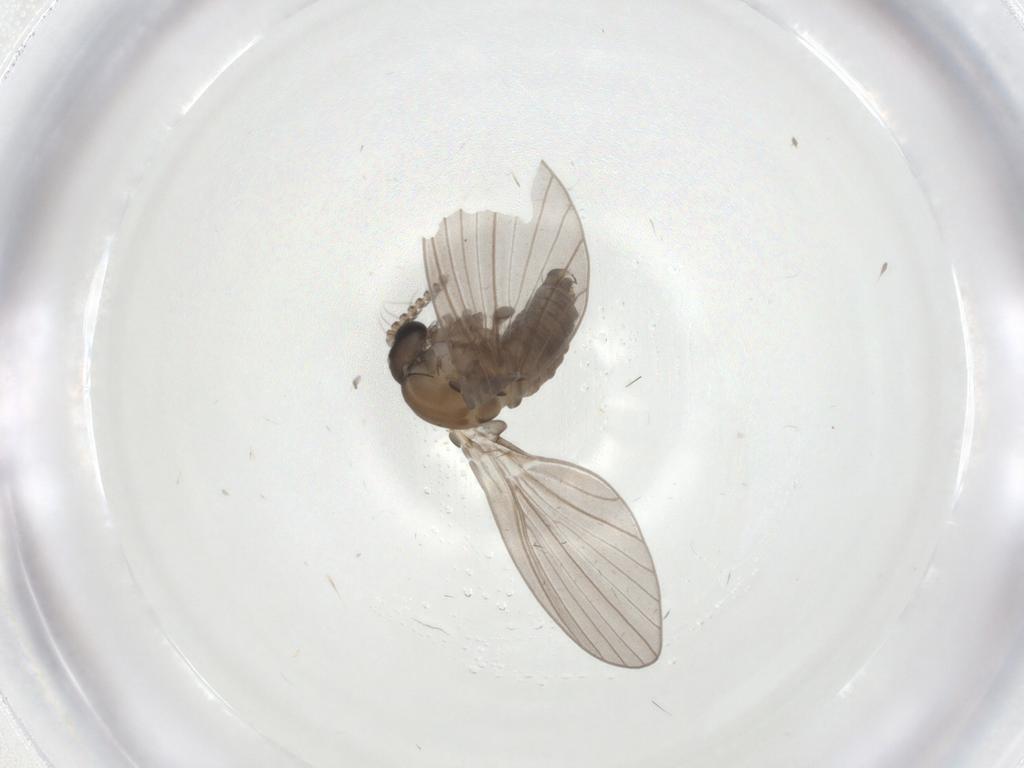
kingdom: Animalia
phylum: Arthropoda
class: Insecta
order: Diptera
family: Psychodidae
